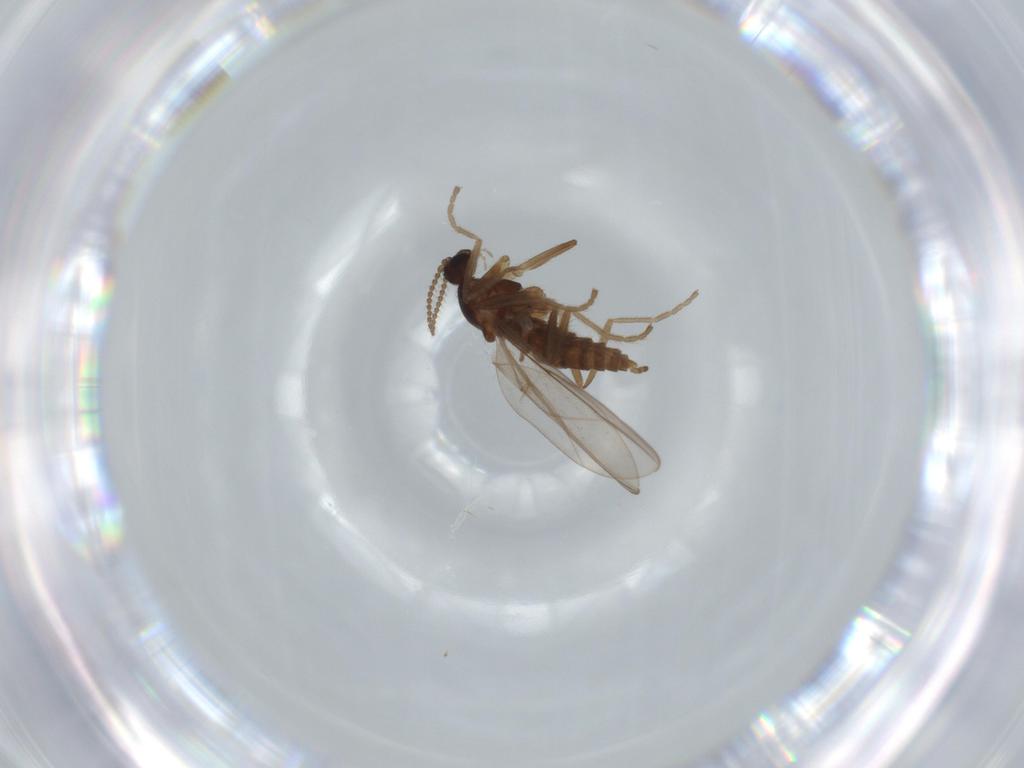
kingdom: Animalia
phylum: Arthropoda
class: Insecta
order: Diptera
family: Cecidomyiidae
